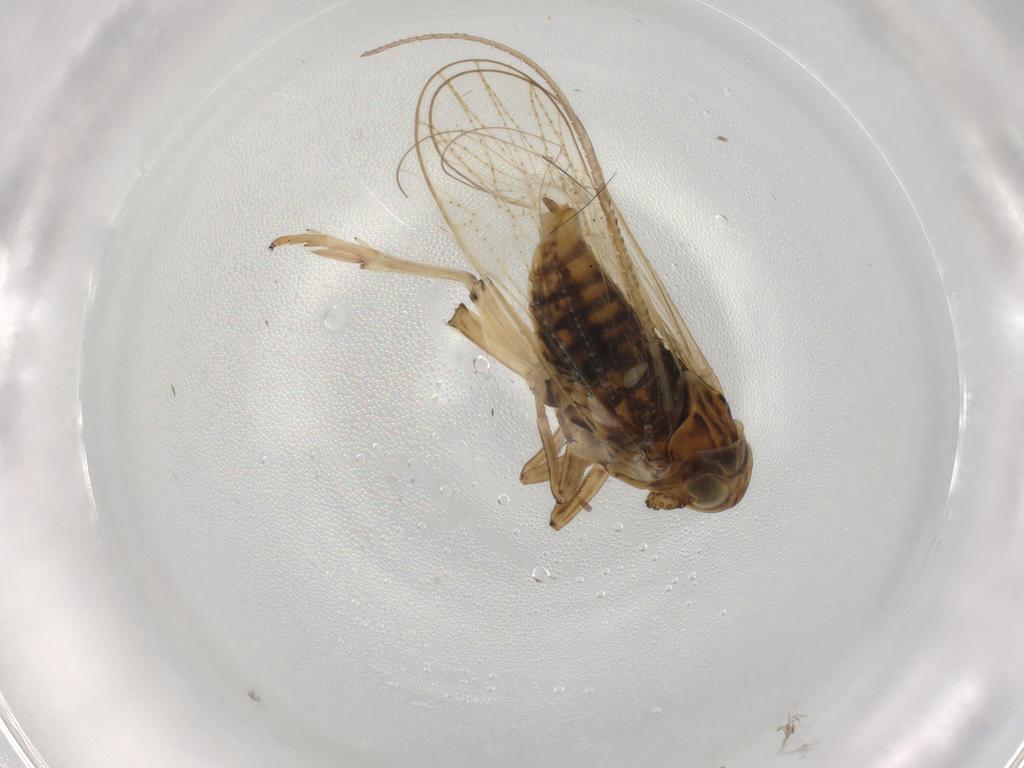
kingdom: Animalia
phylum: Arthropoda
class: Insecta
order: Hemiptera
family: Delphacidae
